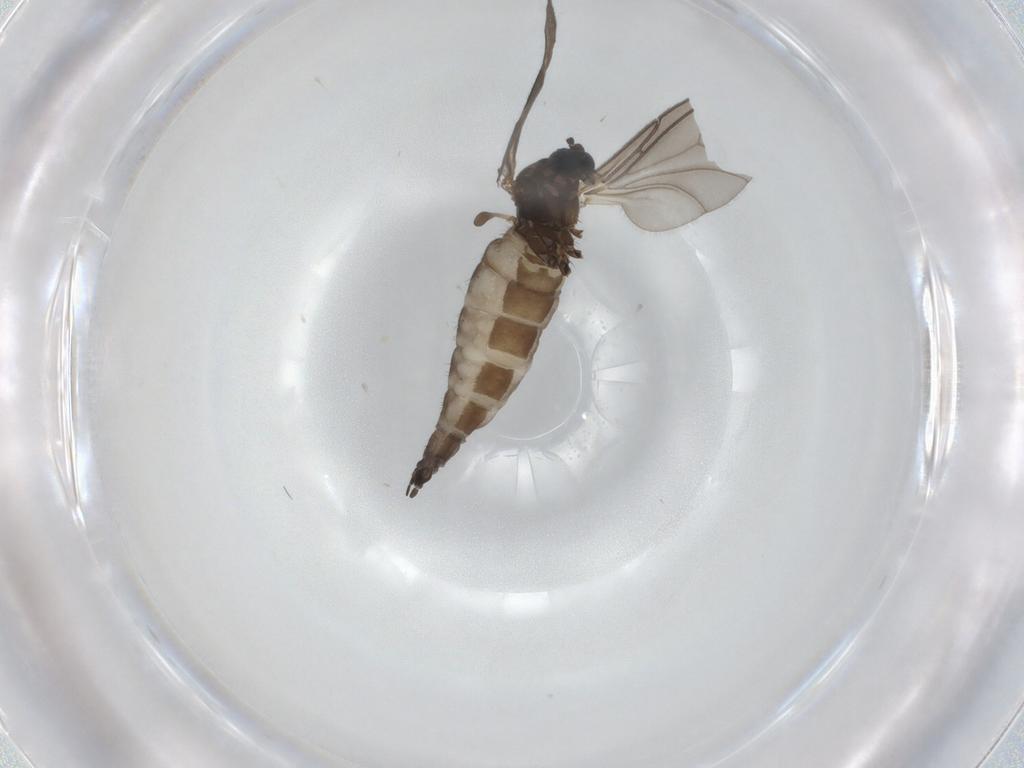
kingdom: Animalia
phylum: Arthropoda
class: Insecta
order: Diptera
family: Sciaridae
